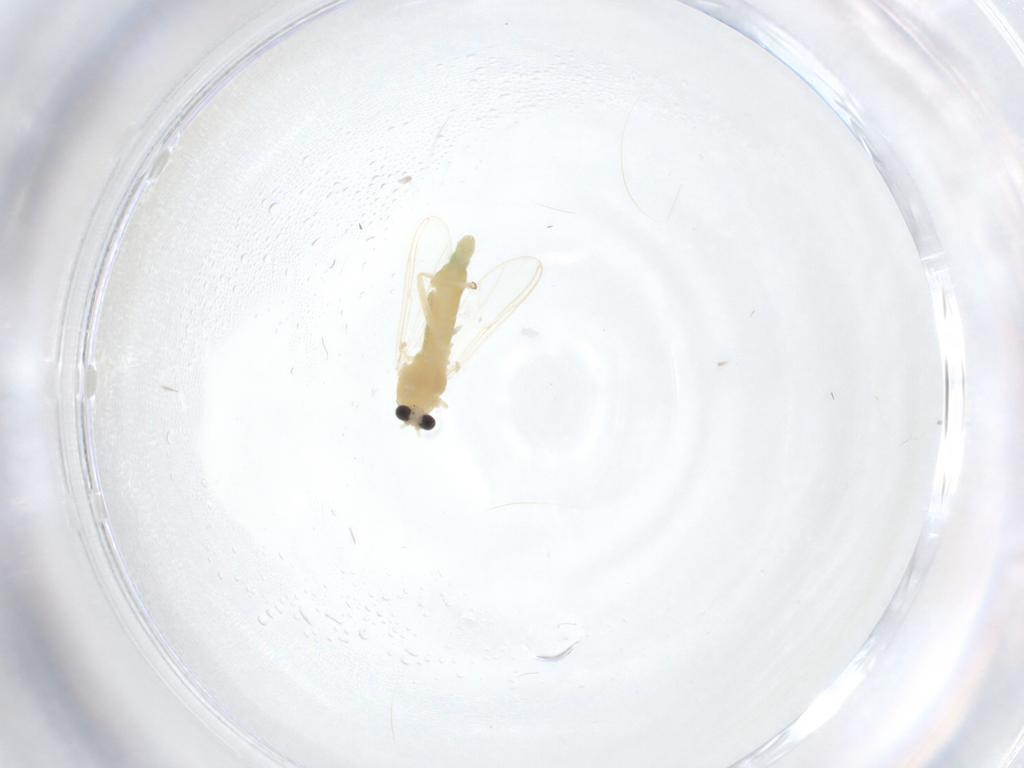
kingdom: Animalia
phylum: Arthropoda
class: Insecta
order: Diptera
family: Chironomidae
